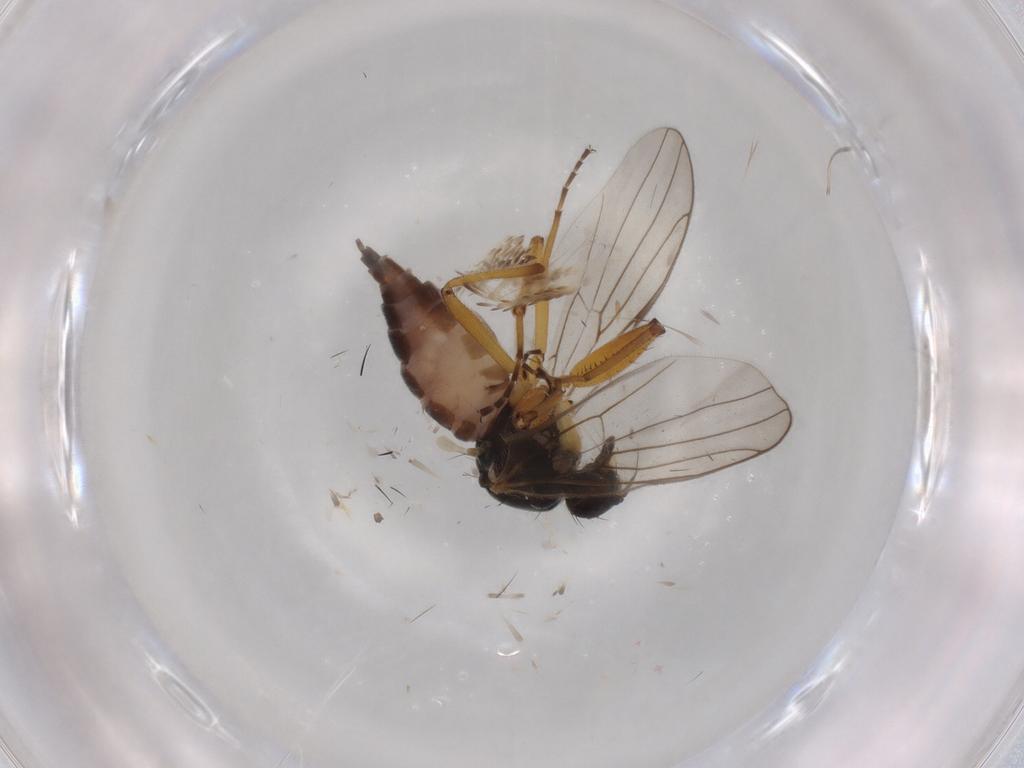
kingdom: Animalia
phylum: Arthropoda
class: Insecta
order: Diptera
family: Hybotidae
